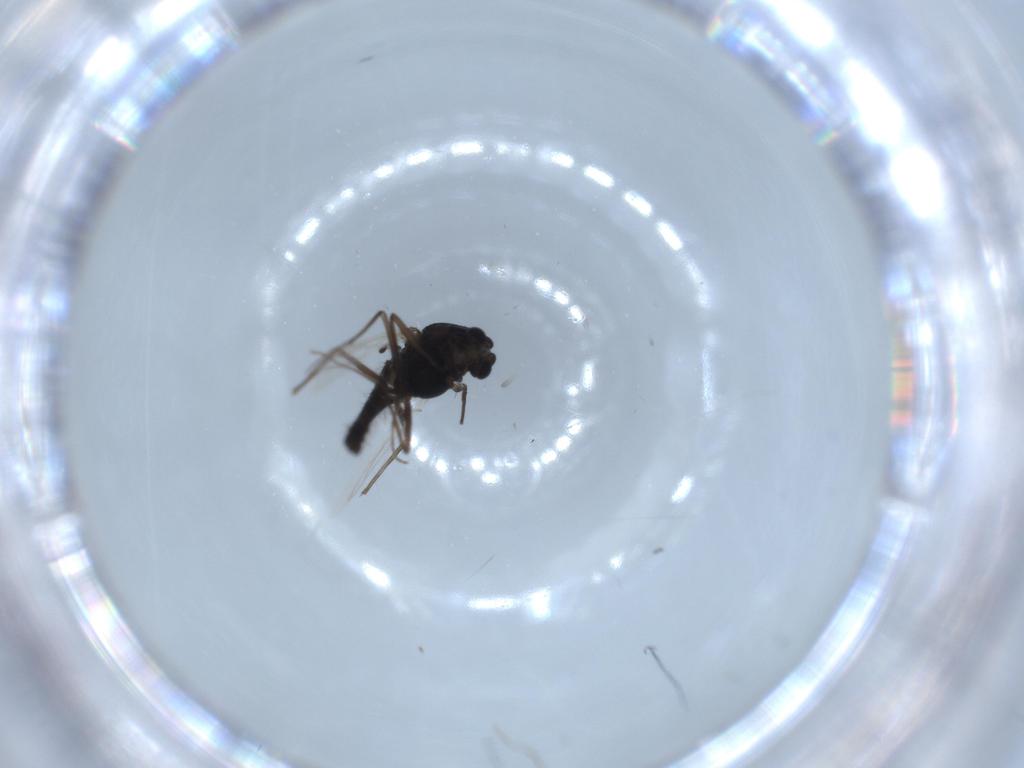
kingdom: Animalia
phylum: Arthropoda
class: Insecta
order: Diptera
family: Chironomidae
